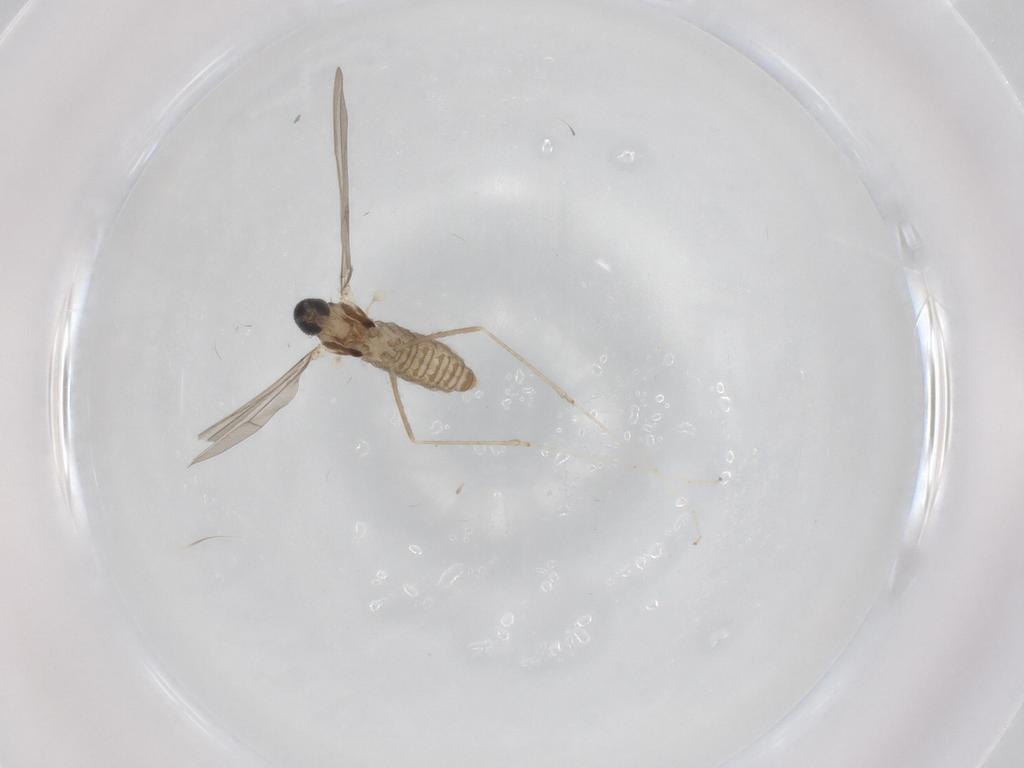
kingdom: Animalia
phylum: Arthropoda
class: Insecta
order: Diptera
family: Cecidomyiidae
